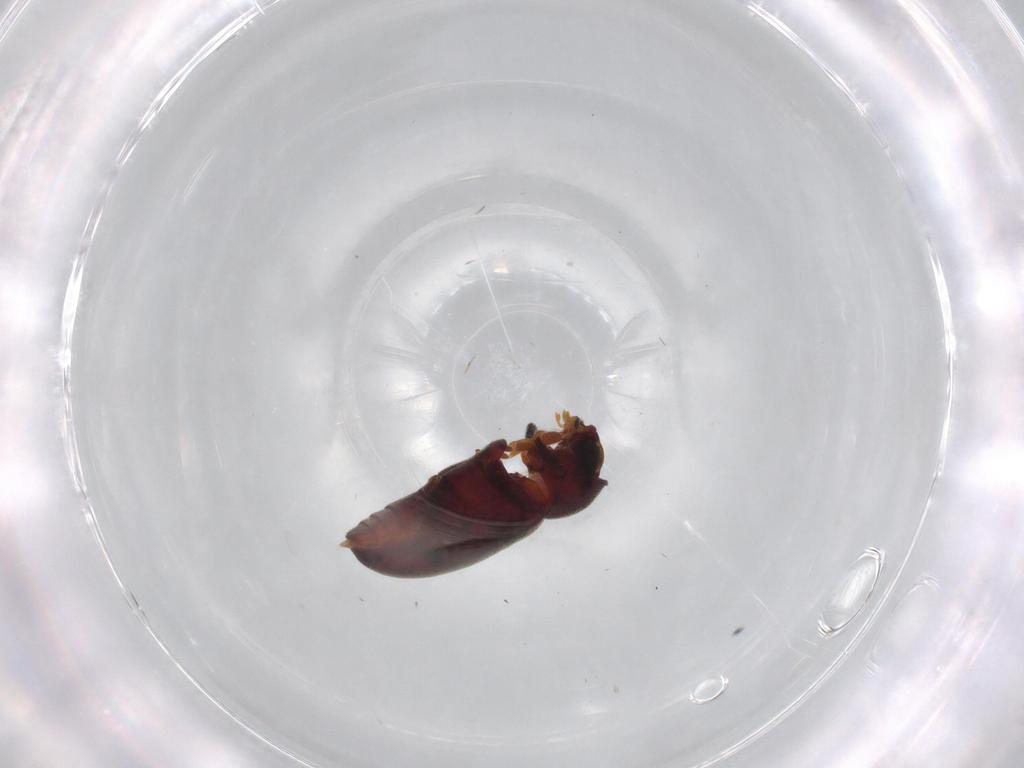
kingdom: Animalia
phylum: Arthropoda
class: Insecta
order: Coleoptera
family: Ptinidae
